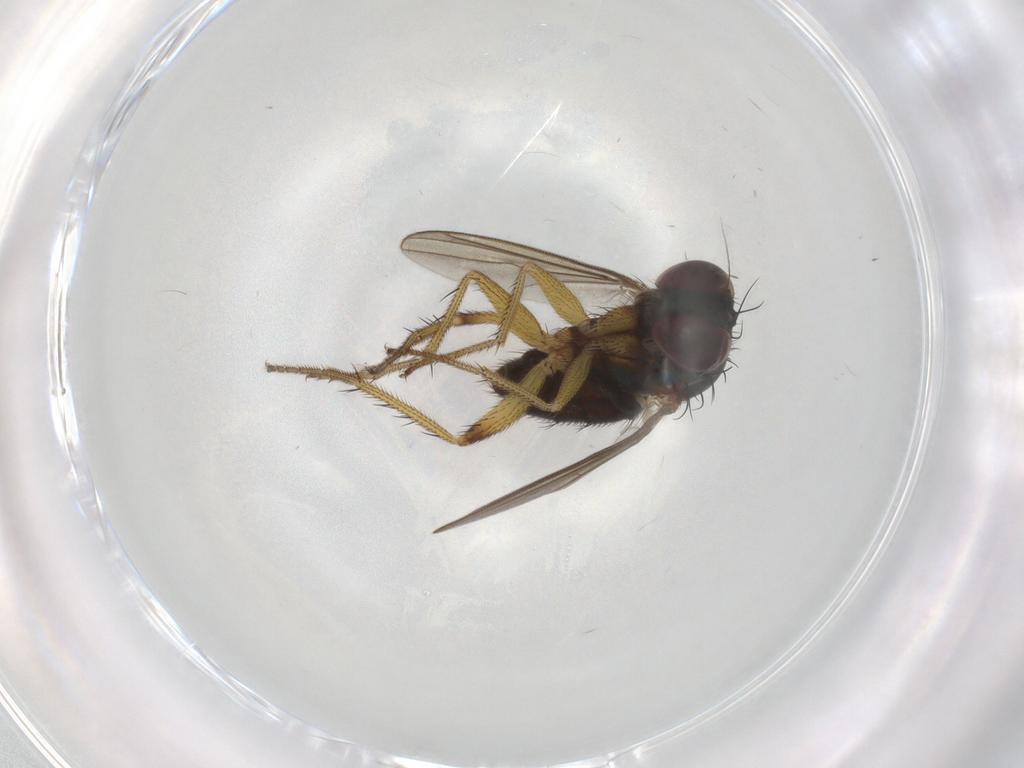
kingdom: Animalia
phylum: Arthropoda
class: Insecta
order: Diptera
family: Dolichopodidae
